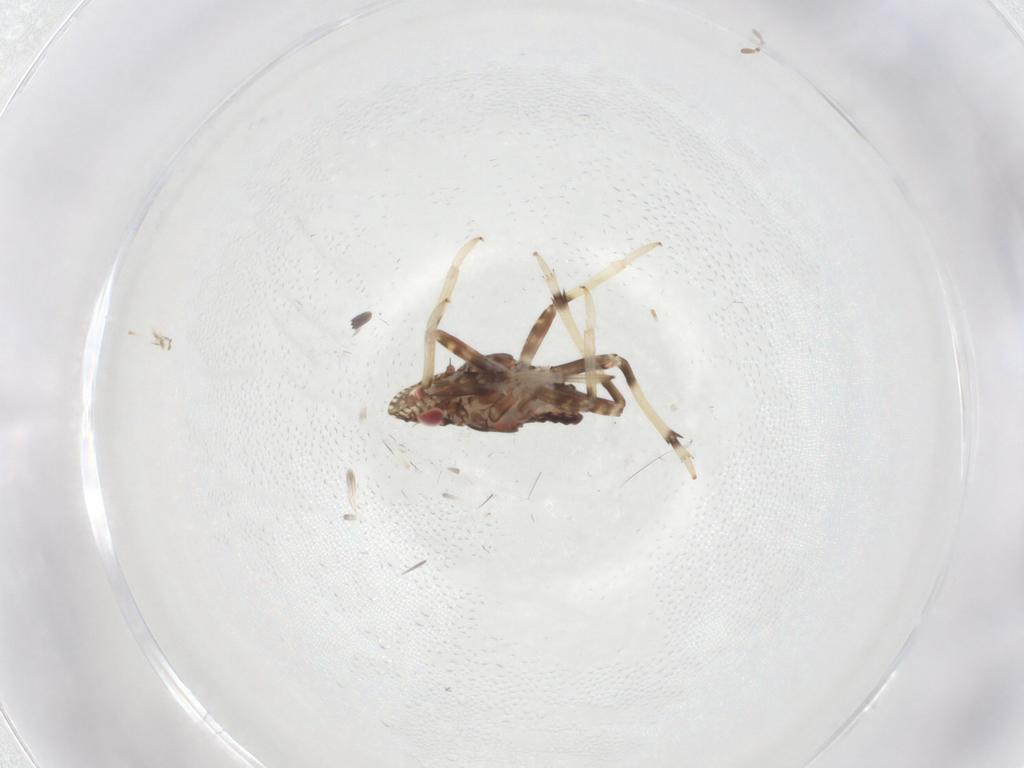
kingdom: Animalia
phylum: Arthropoda
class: Insecta
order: Hemiptera
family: Dictyopharidae
